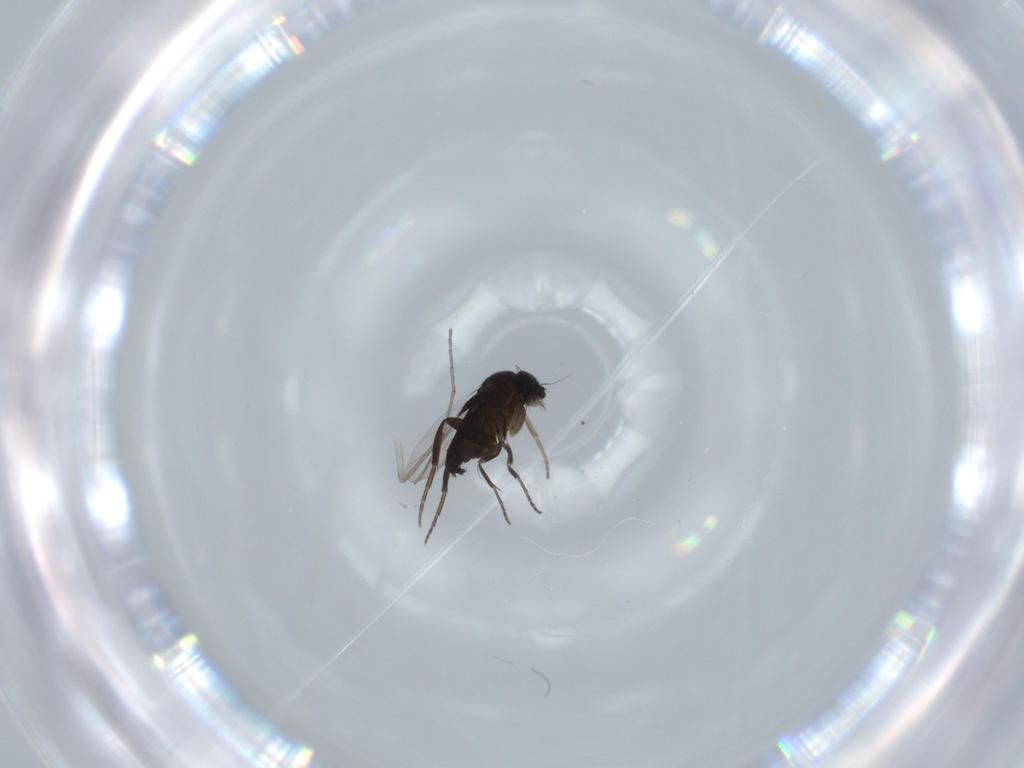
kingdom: Animalia
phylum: Arthropoda
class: Insecta
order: Diptera
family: Phoridae
